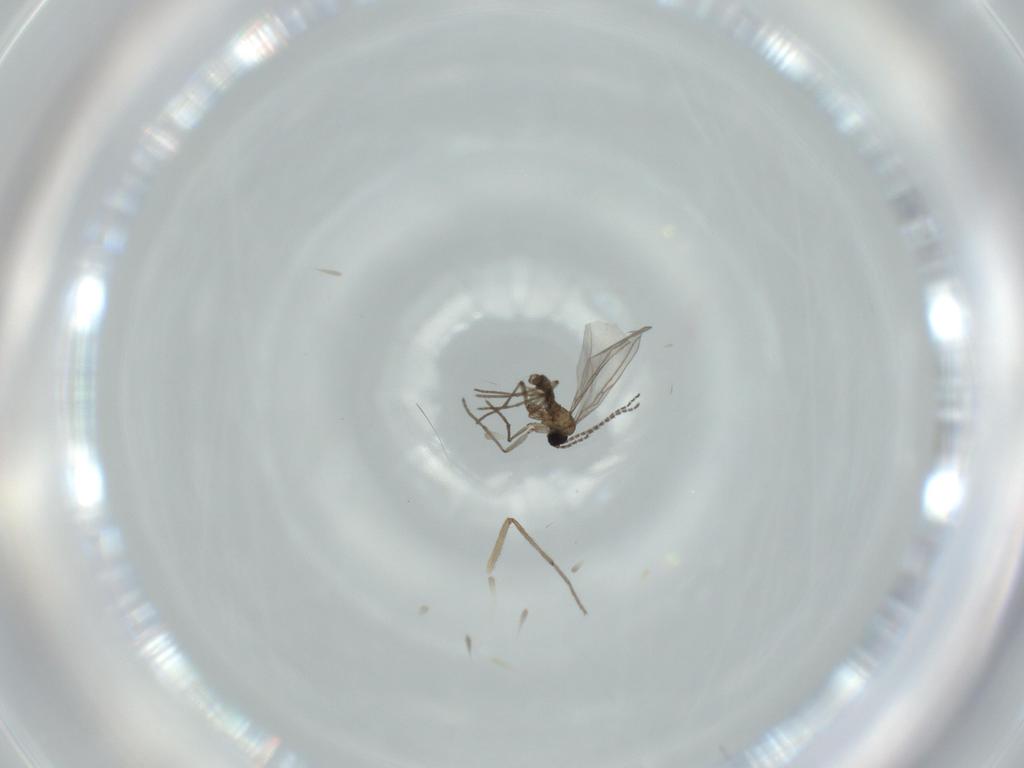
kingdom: Animalia
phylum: Arthropoda
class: Insecta
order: Diptera
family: Sciaridae
